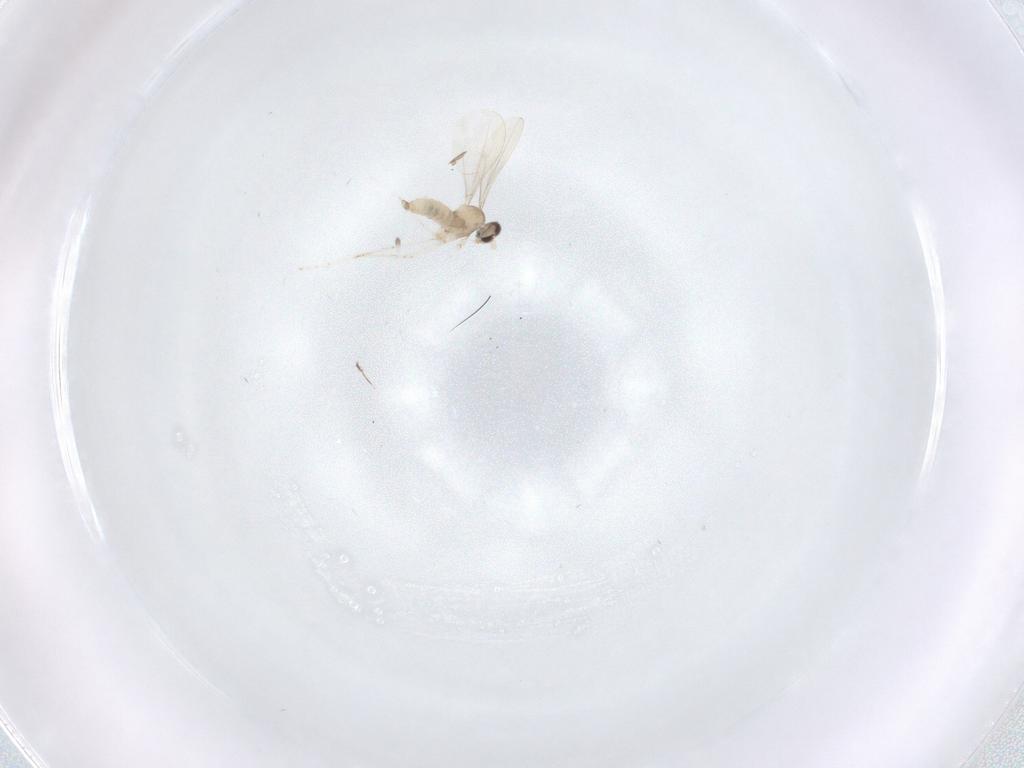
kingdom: Animalia
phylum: Arthropoda
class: Insecta
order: Diptera
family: Cecidomyiidae
